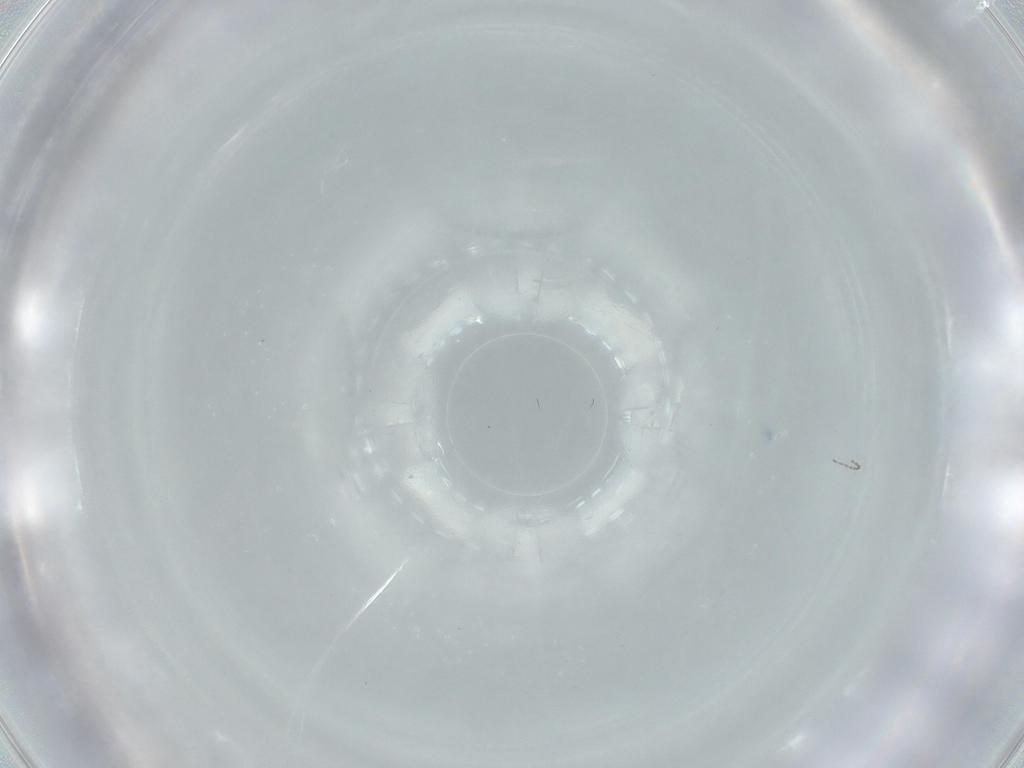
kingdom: Animalia
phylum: Arthropoda
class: Insecta
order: Diptera
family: Cecidomyiidae
